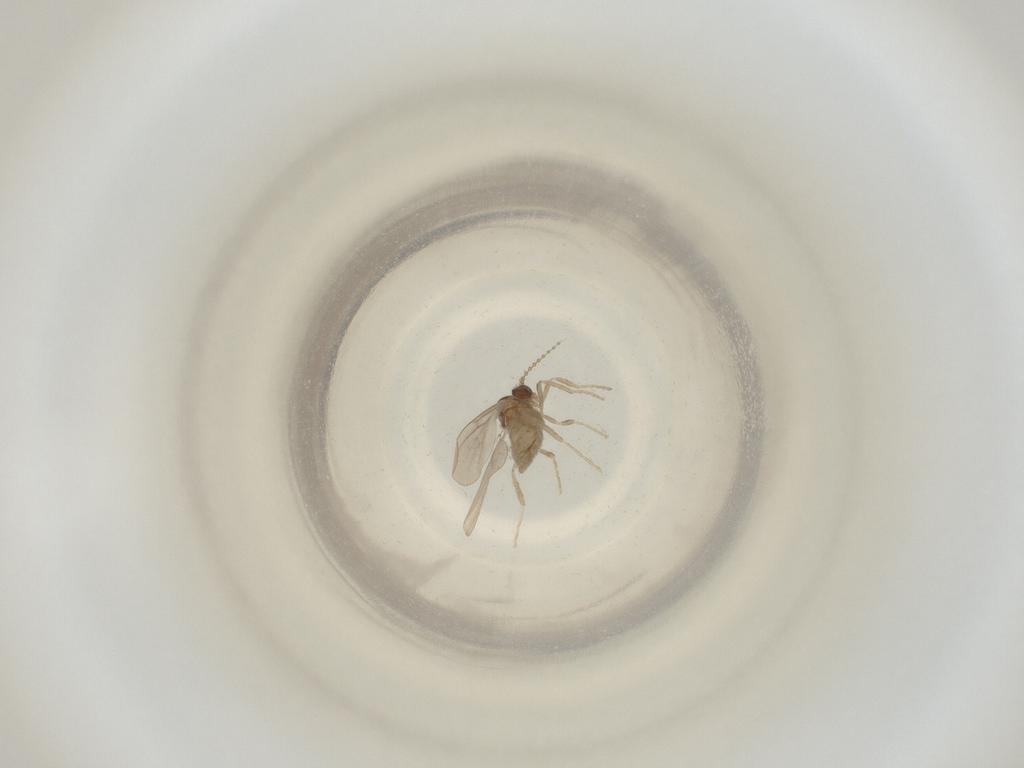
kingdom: Animalia
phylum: Arthropoda
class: Insecta
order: Diptera
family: Cecidomyiidae
